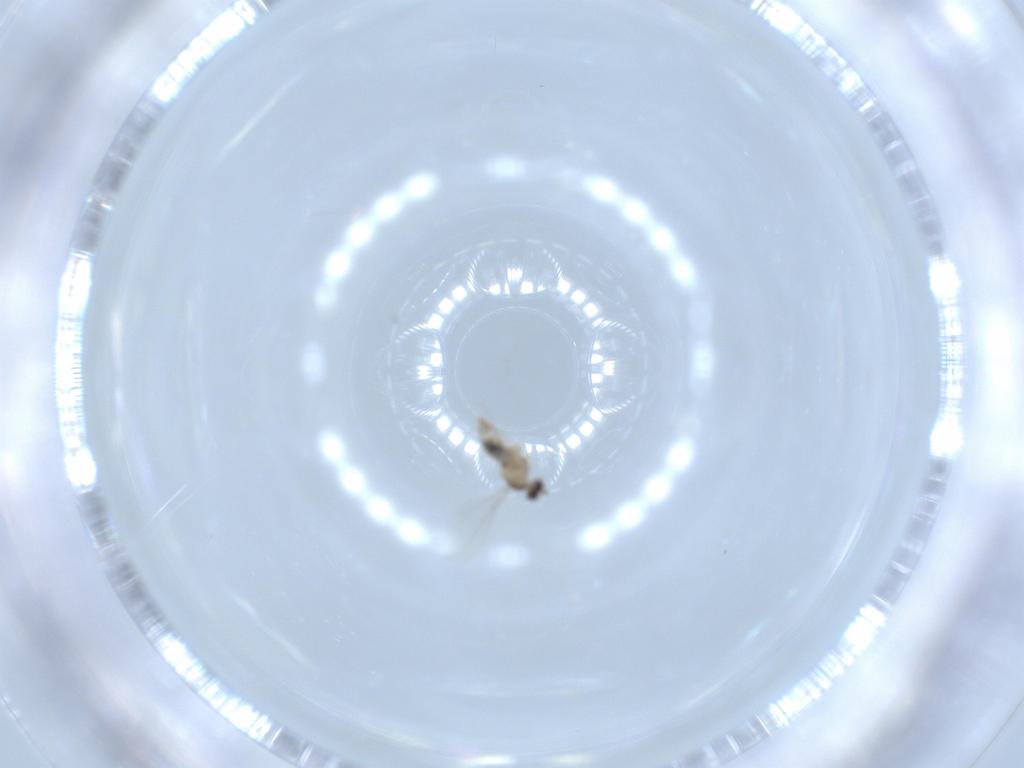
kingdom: Animalia
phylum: Arthropoda
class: Insecta
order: Diptera
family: Cecidomyiidae
